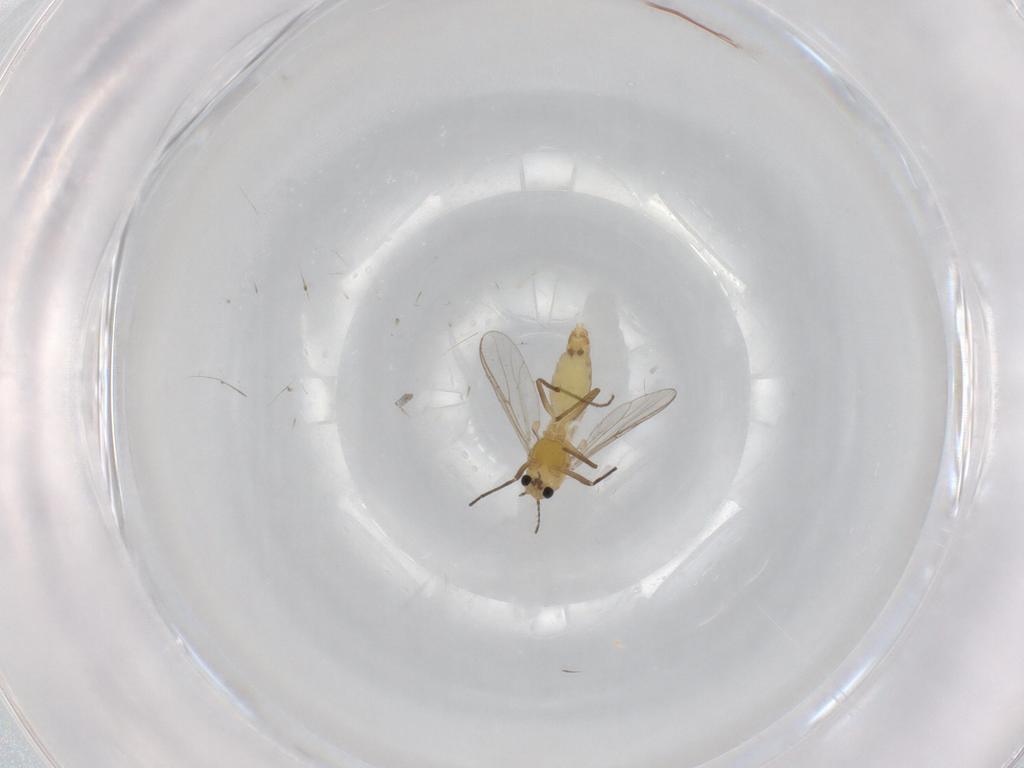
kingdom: Animalia
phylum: Arthropoda
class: Insecta
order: Diptera
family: Chironomidae
